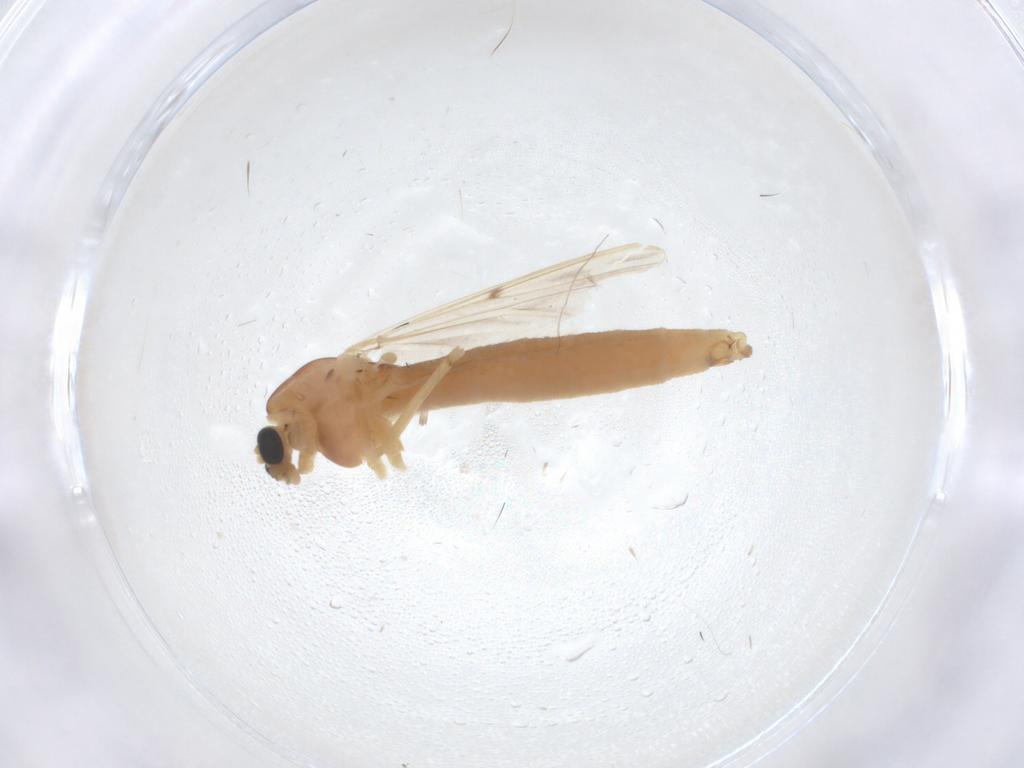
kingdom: Animalia
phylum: Arthropoda
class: Insecta
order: Diptera
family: Chironomidae
